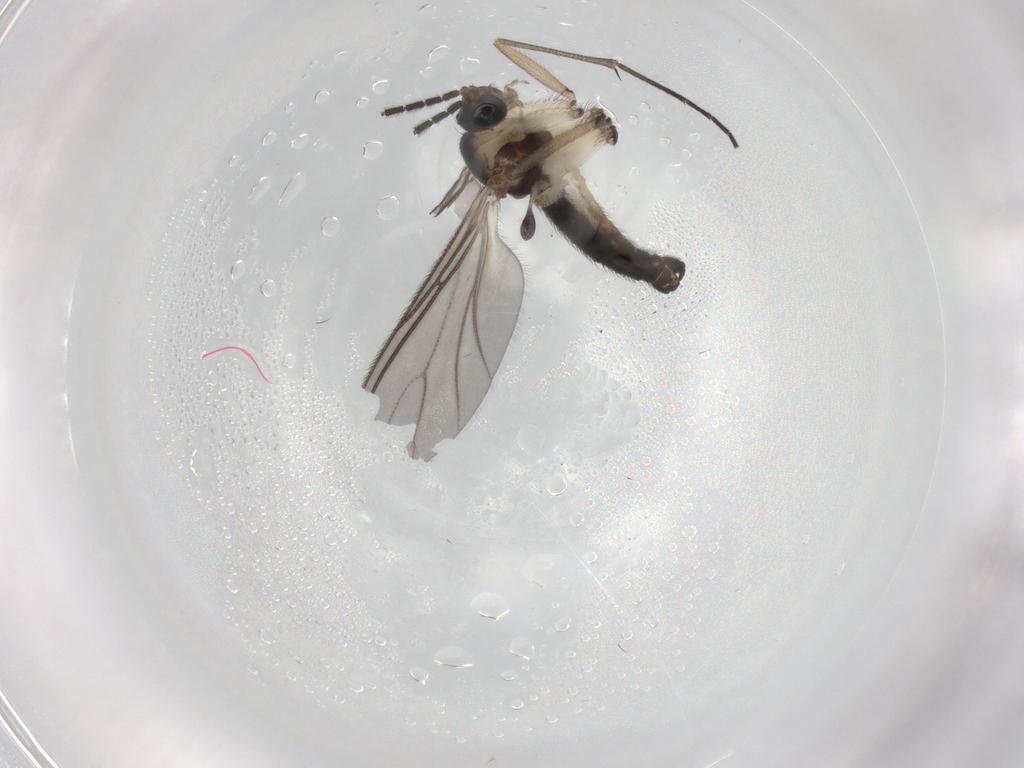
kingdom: Animalia
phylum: Arthropoda
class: Insecta
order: Diptera
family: Sciaridae
